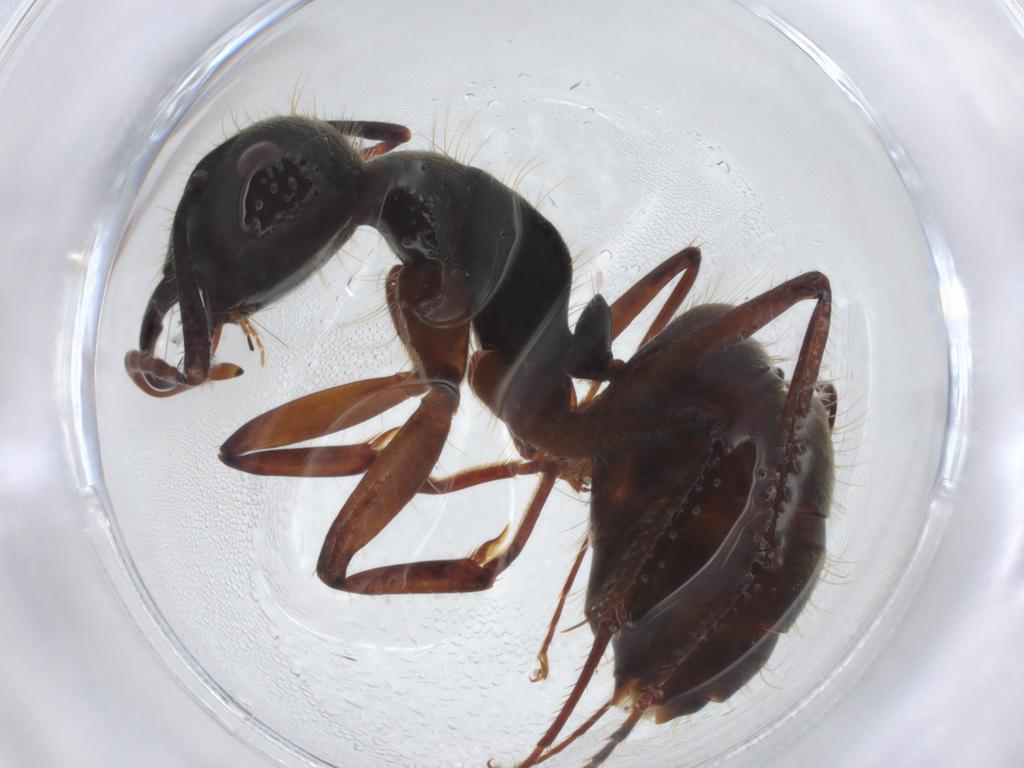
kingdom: Animalia
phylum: Arthropoda
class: Insecta
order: Hymenoptera
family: Formicidae
